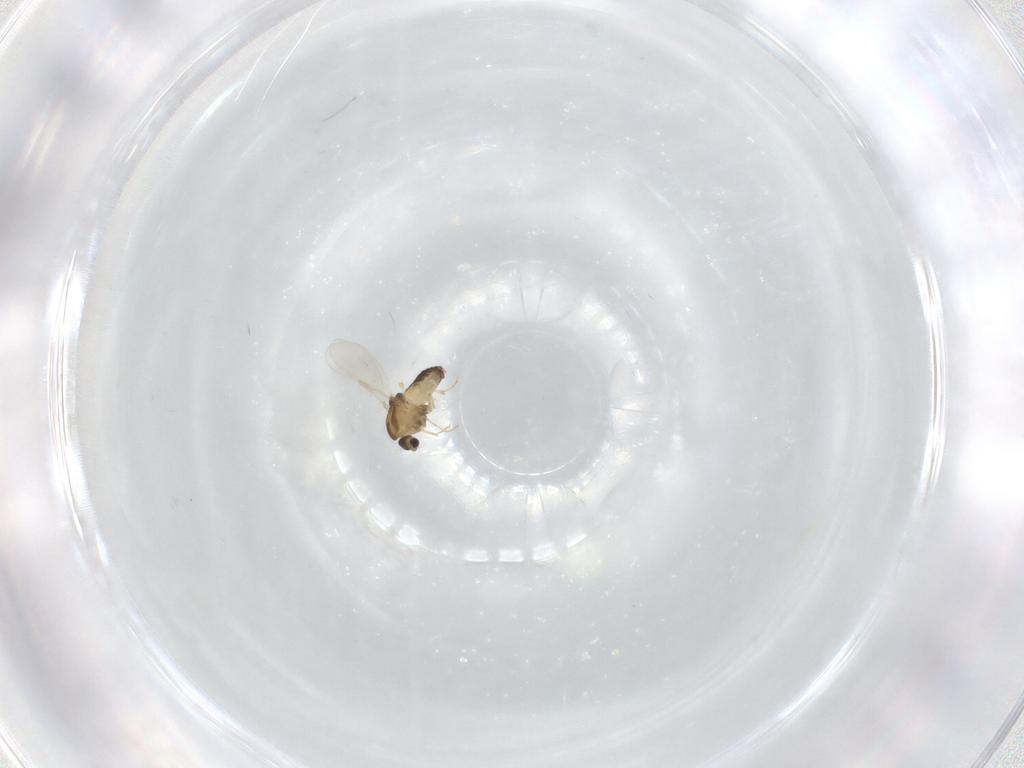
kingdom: Animalia
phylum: Arthropoda
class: Insecta
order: Diptera
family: Chironomidae
